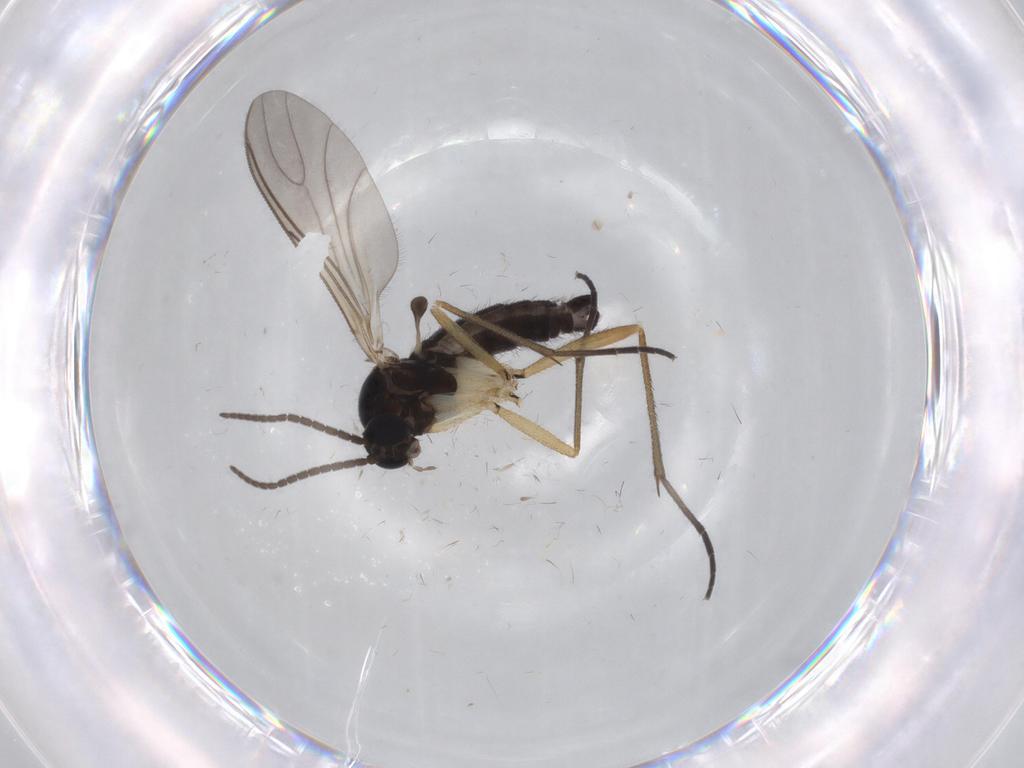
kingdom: Animalia
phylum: Arthropoda
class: Insecta
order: Diptera
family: Sciaridae
